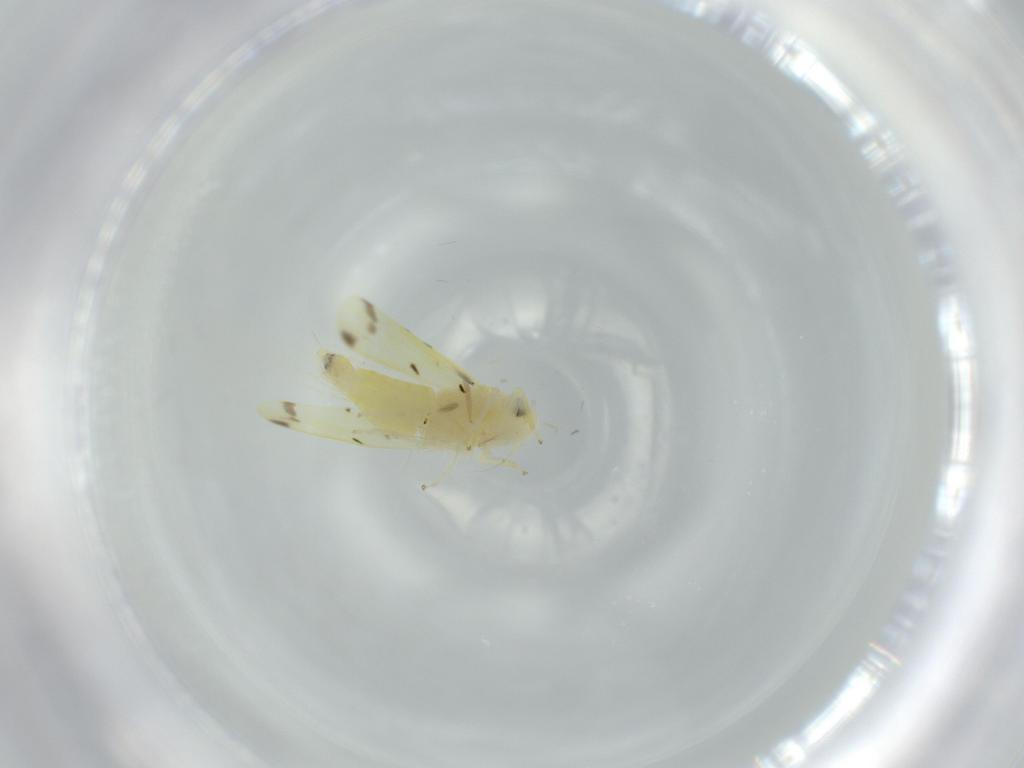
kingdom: Animalia
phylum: Arthropoda
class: Insecta
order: Hemiptera
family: Cicadellidae
